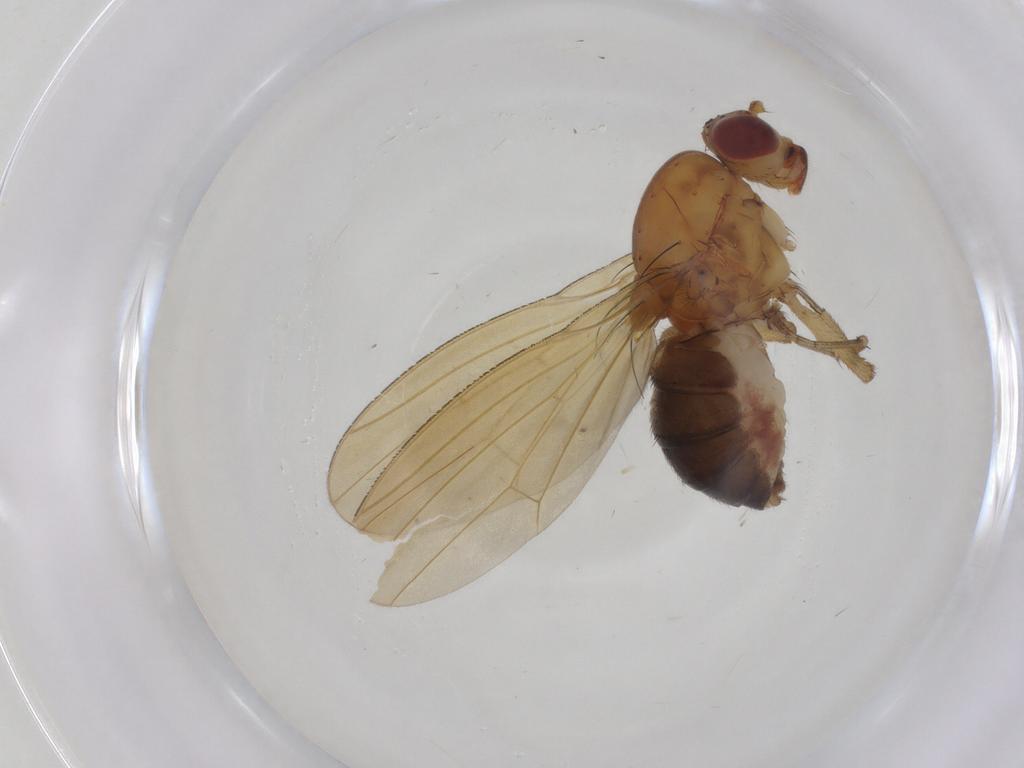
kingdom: Animalia
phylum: Arthropoda
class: Insecta
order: Diptera
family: Lauxaniidae
